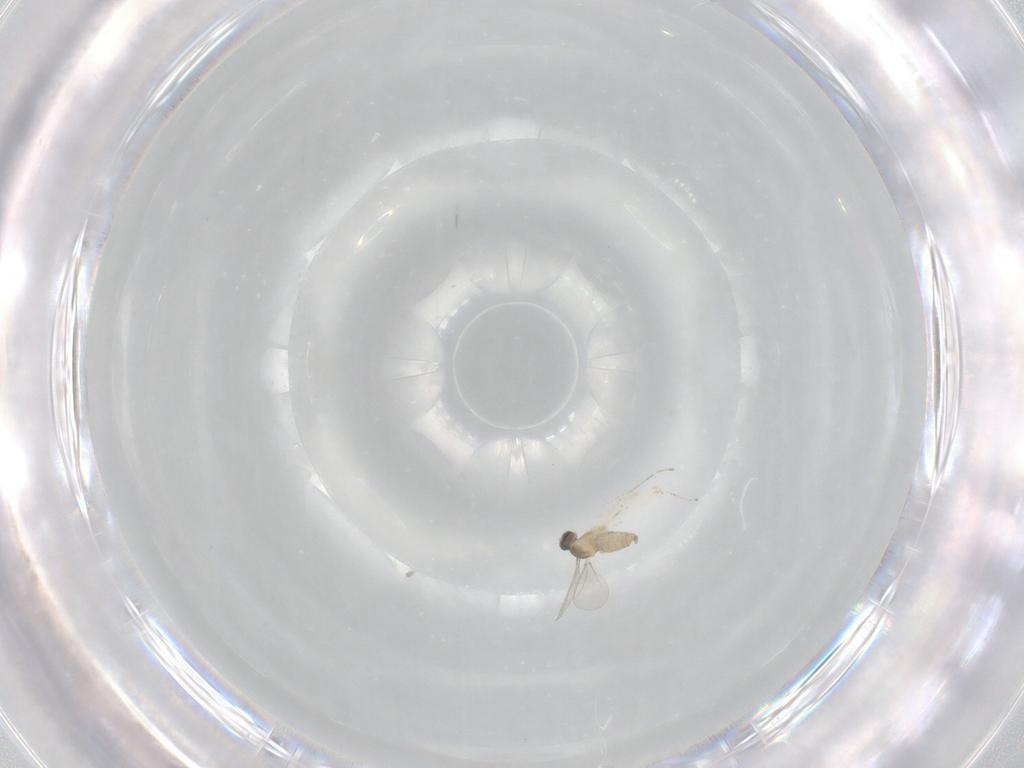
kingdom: Animalia
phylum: Arthropoda
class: Insecta
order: Diptera
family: Cecidomyiidae
